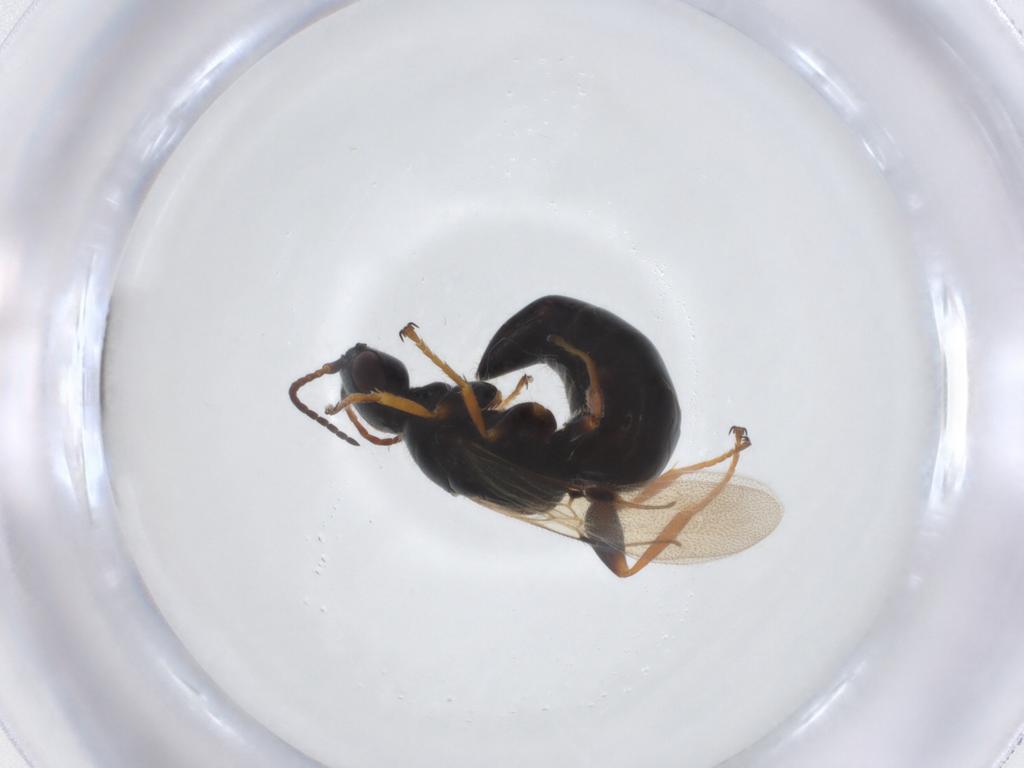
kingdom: Animalia
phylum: Arthropoda
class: Insecta
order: Hymenoptera
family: Bethylidae
